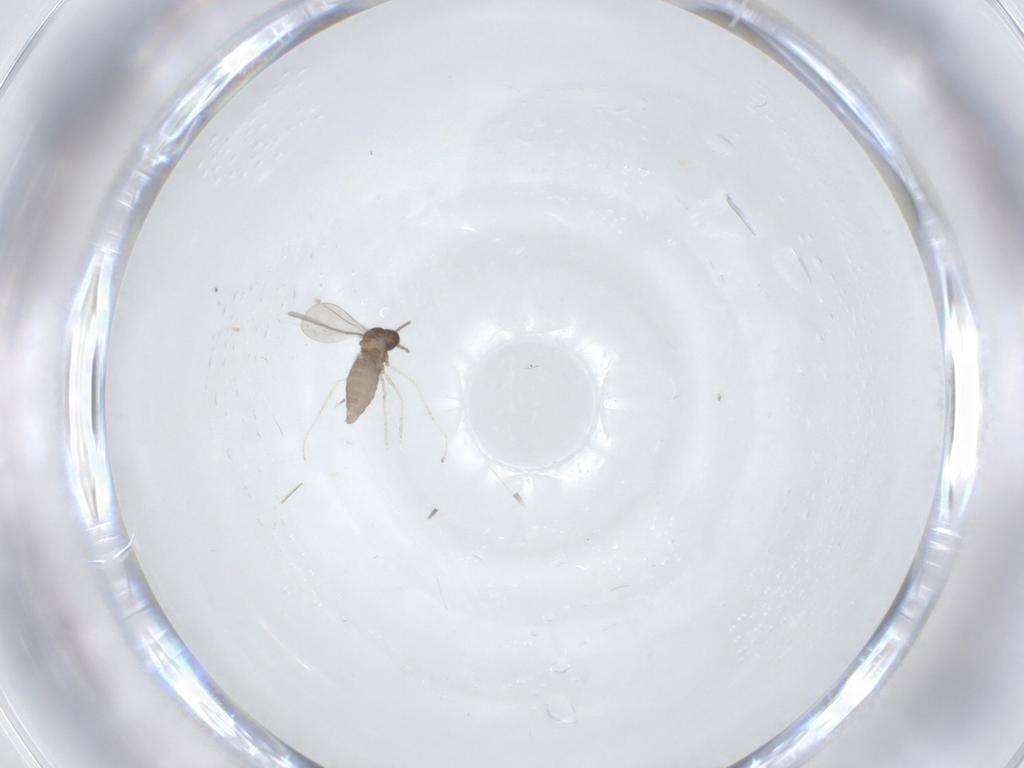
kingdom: Animalia
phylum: Arthropoda
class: Insecta
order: Diptera
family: Cecidomyiidae
